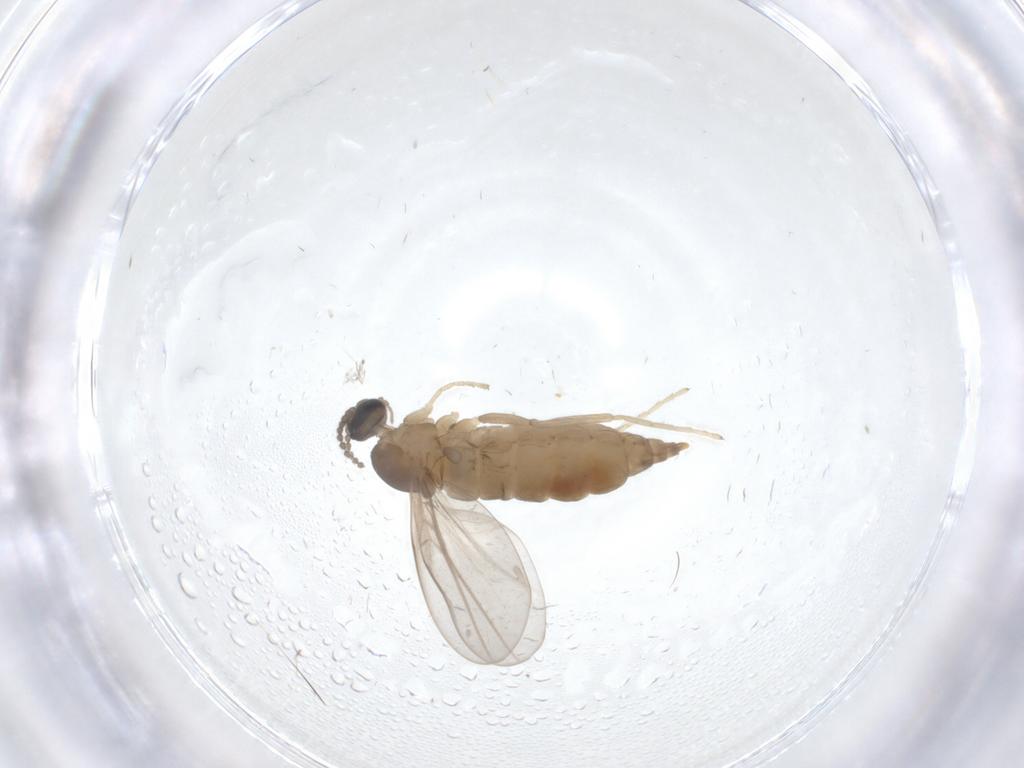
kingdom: Animalia
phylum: Arthropoda
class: Insecta
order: Diptera
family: Cecidomyiidae
